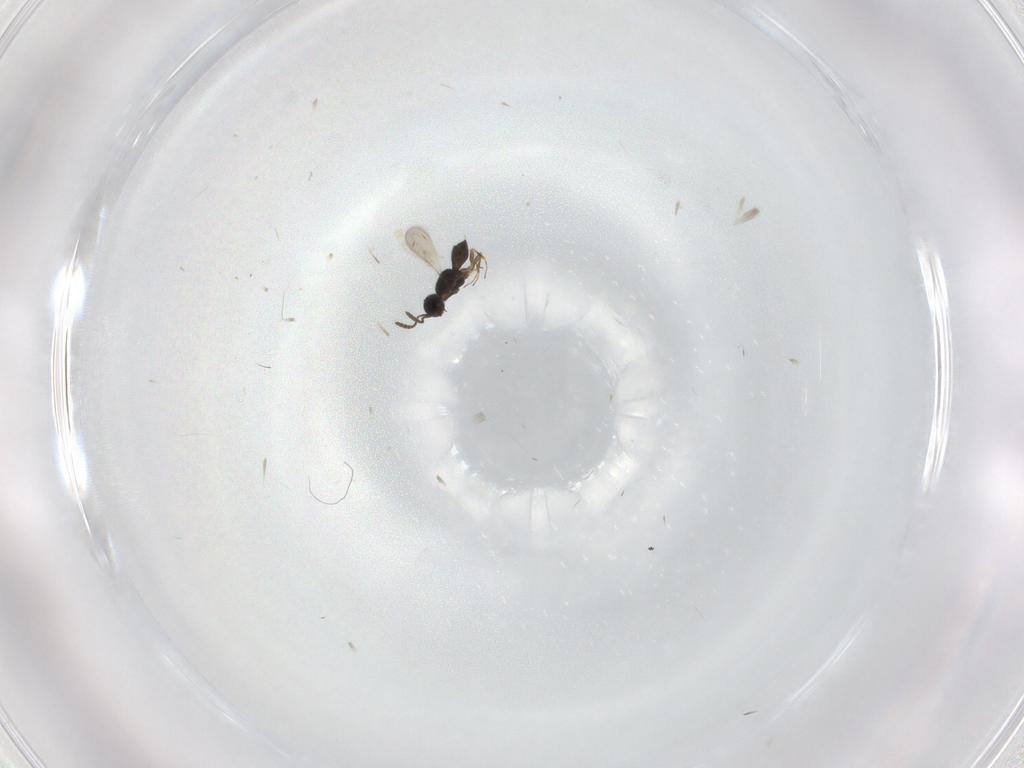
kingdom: Animalia
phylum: Arthropoda
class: Insecta
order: Hymenoptera
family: Scelionidae
